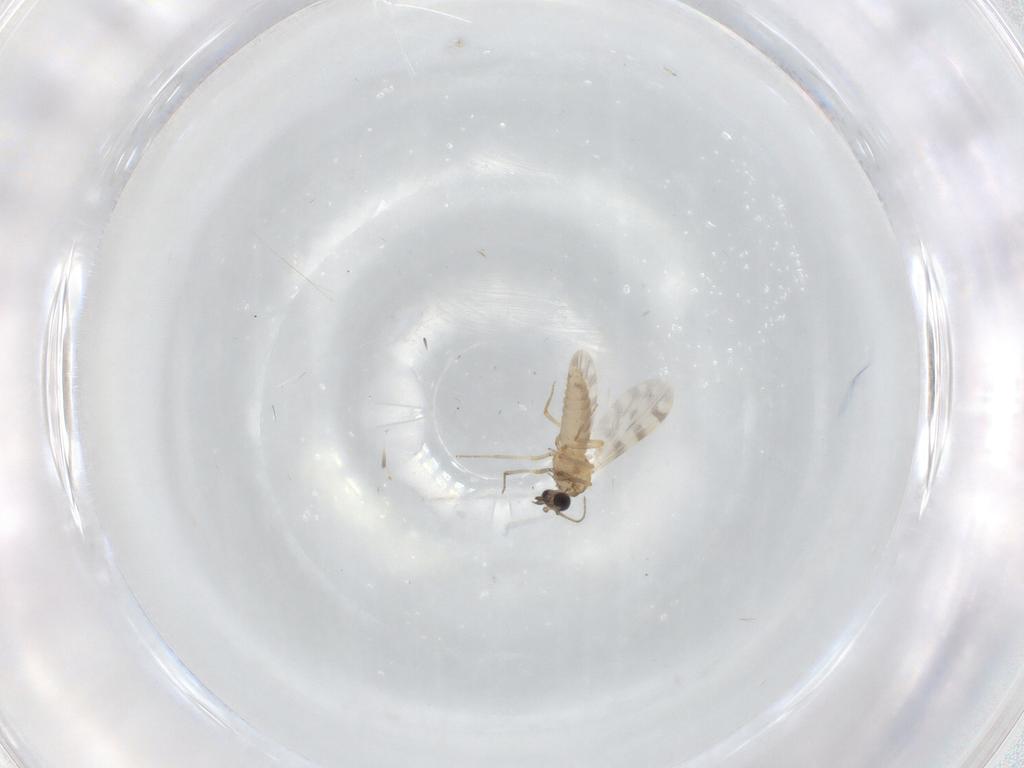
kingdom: Animalia
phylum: Arthropoda
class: Insecta
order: Diptera
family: Ceratopogonidae
